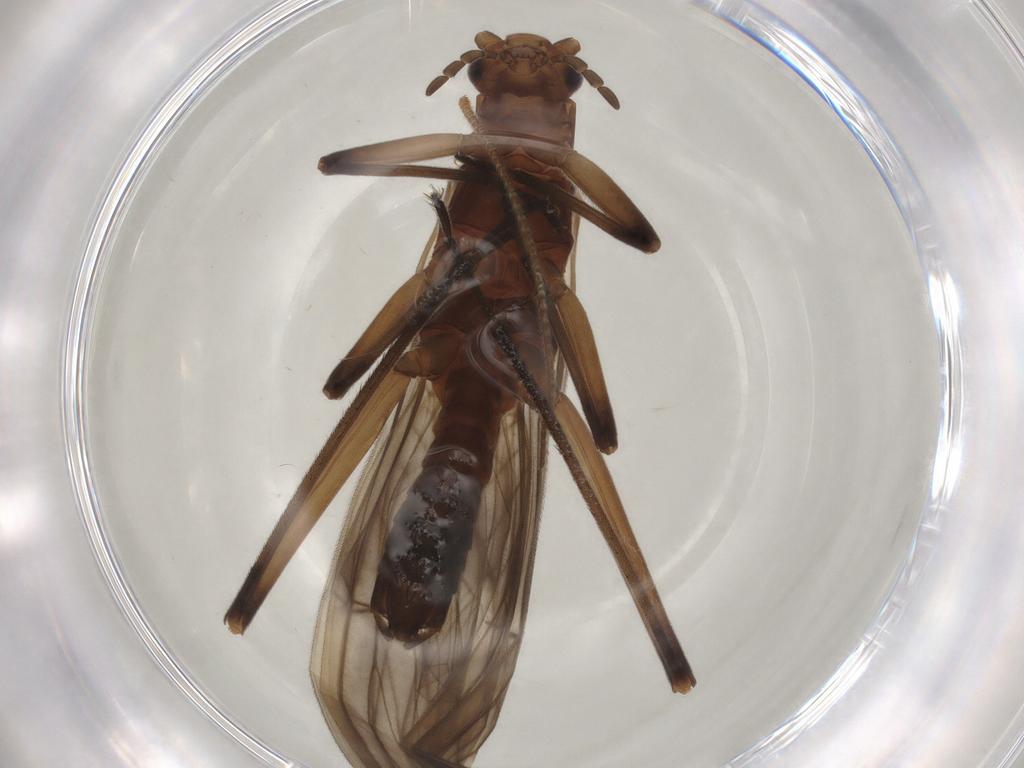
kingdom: Animalia
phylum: Arthropoda
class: Insecta
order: Plecoptera
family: Notonemouridae
